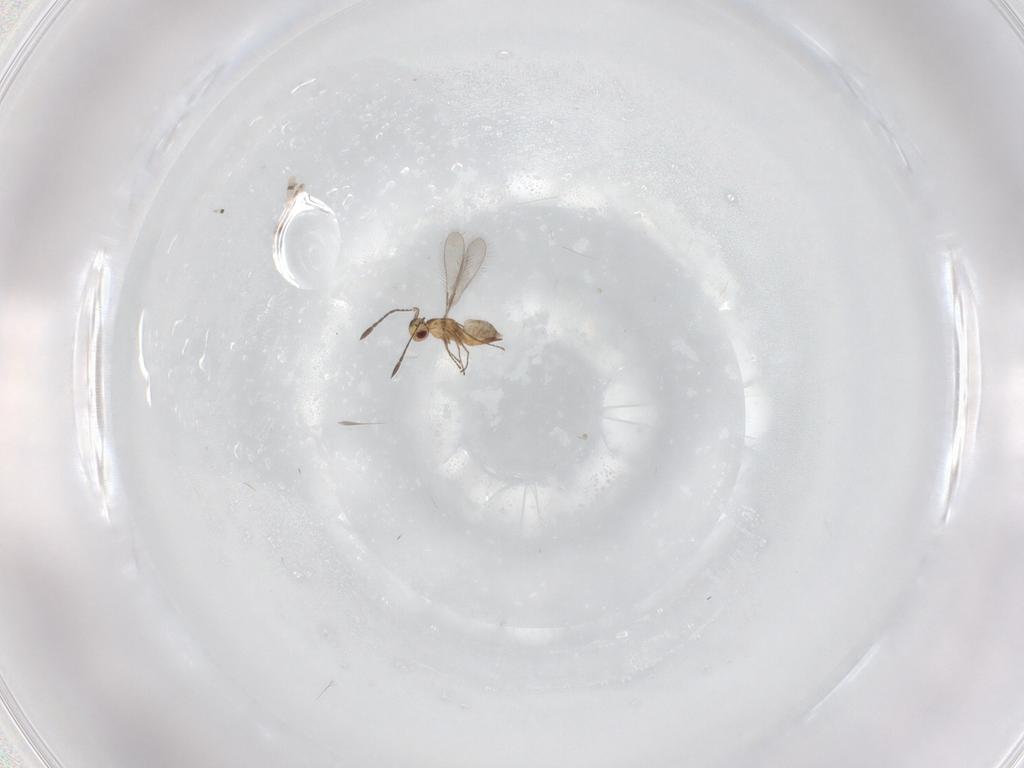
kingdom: Animalia
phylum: Arthropoda
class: Insecta
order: Hymenoptera
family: Mymaridae
